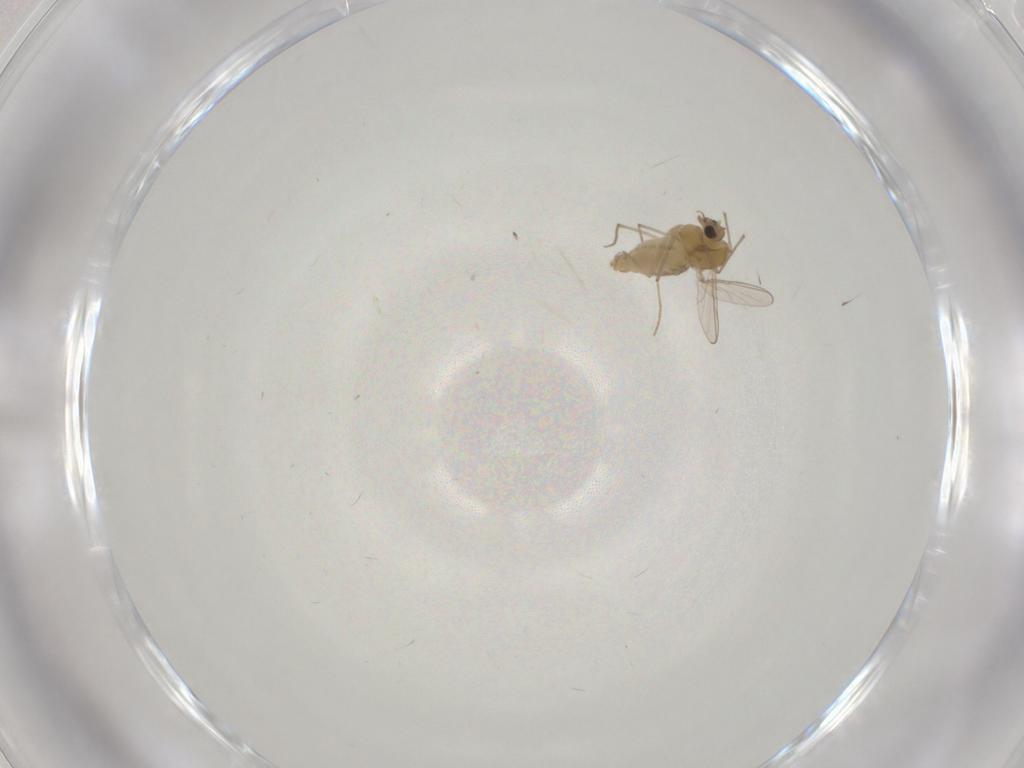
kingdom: Animalia
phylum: Arthropoda
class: Insecta
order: Diptera
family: Chironomidae
